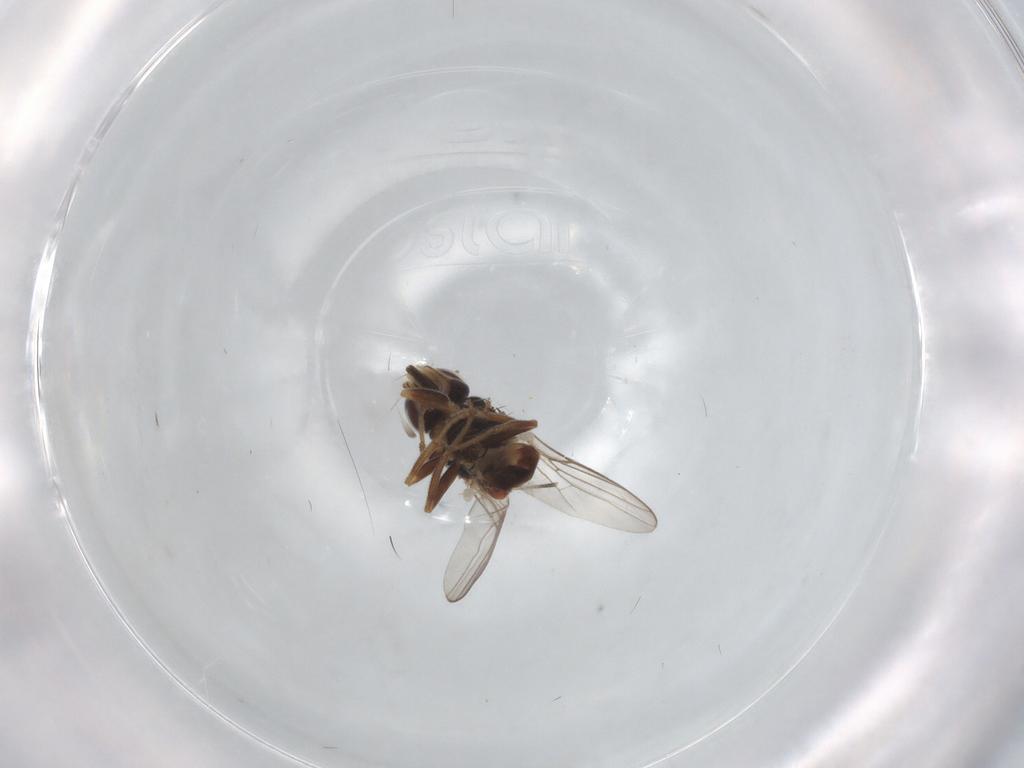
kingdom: Animalia
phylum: Arthropoda
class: Insecta
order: Diptera
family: Chloropidae
